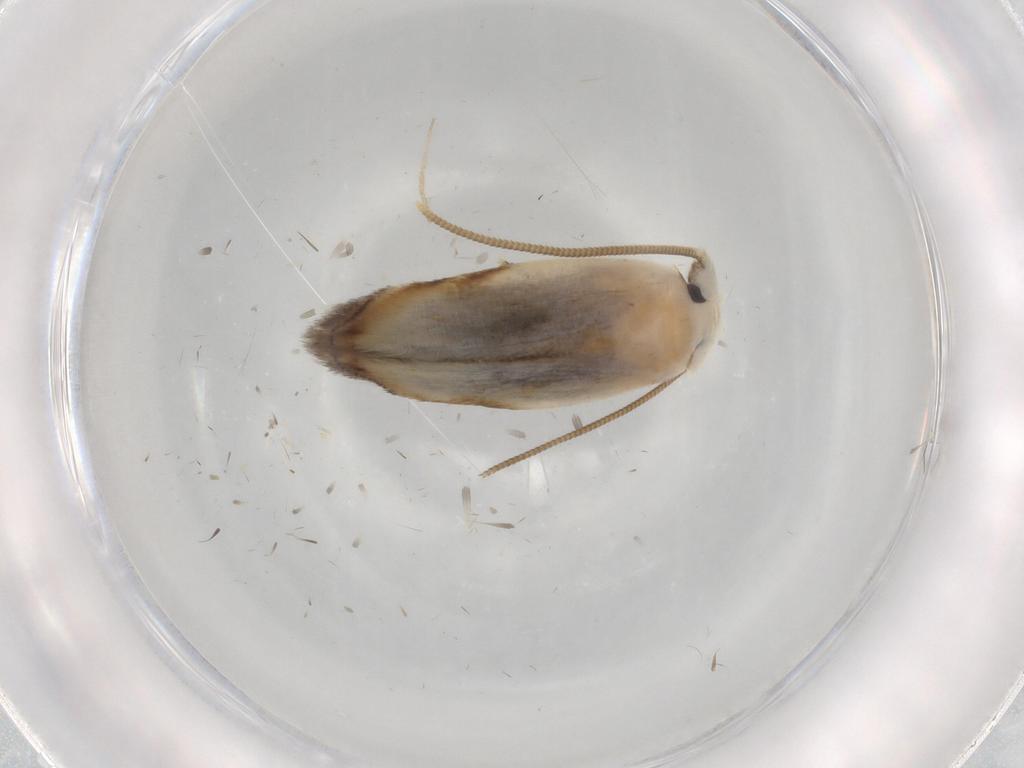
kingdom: Animalia
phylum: Arthropoda
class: Insecta
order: Lepidoptera
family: Opostegidae
